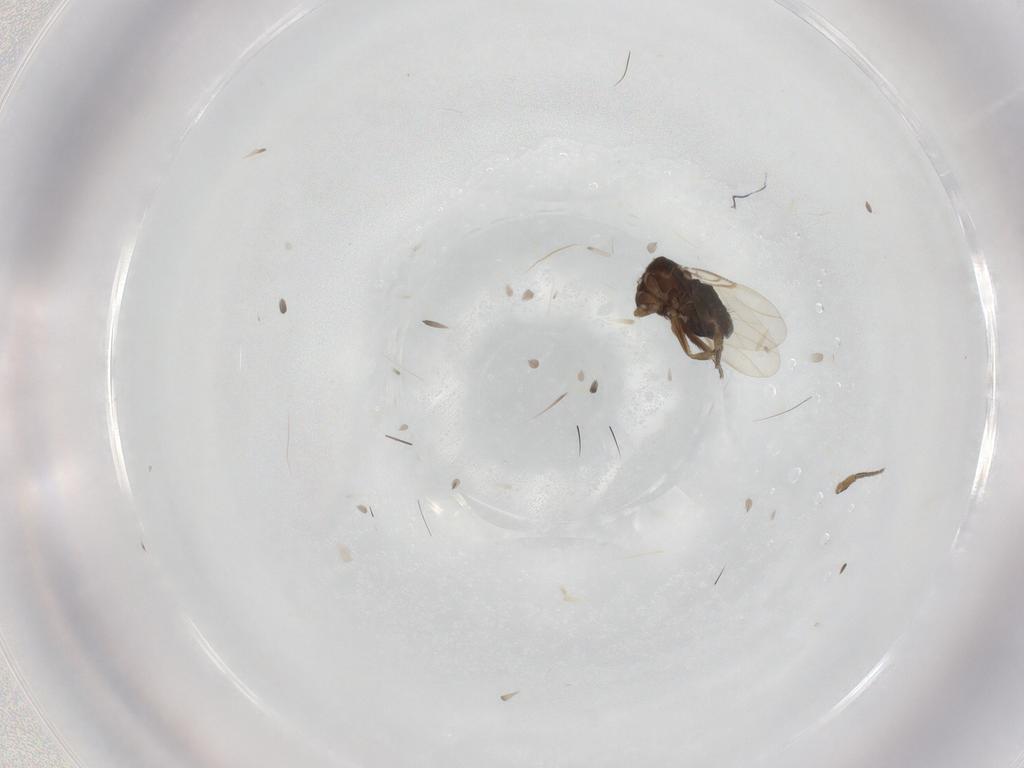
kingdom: Animalia
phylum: Arthropoda
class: Insecta
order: Diptera
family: Phoridae
